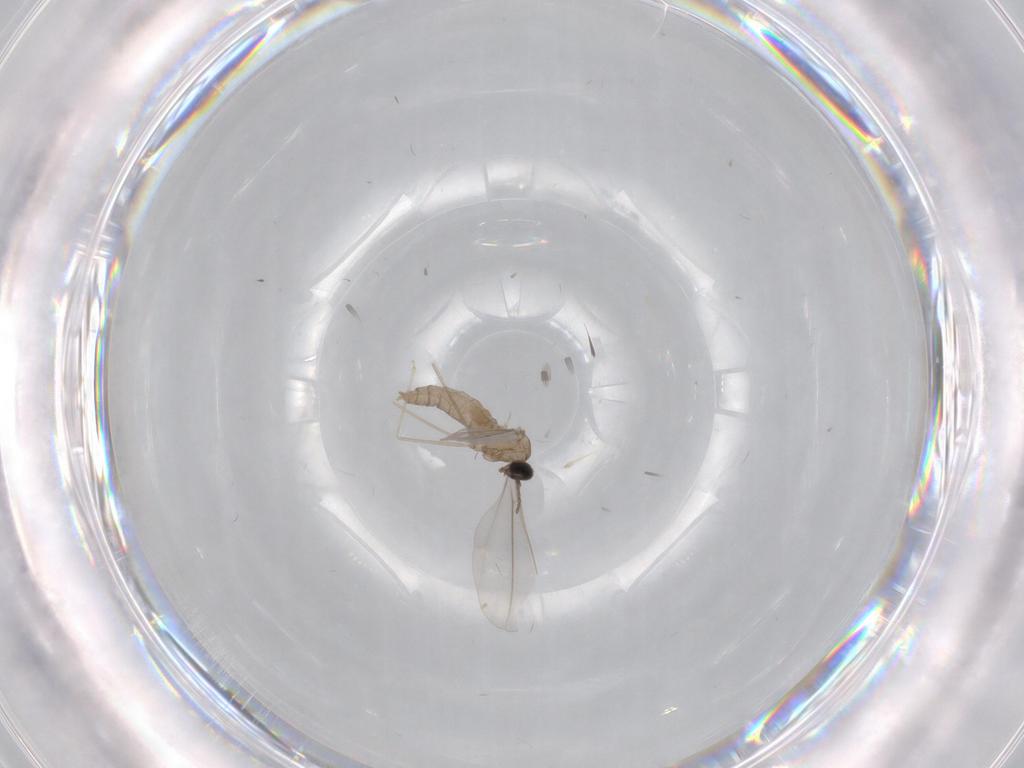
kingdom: Animalia
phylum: Arthropoda
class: Insecta
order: Diptera
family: Cecidomyiidae
